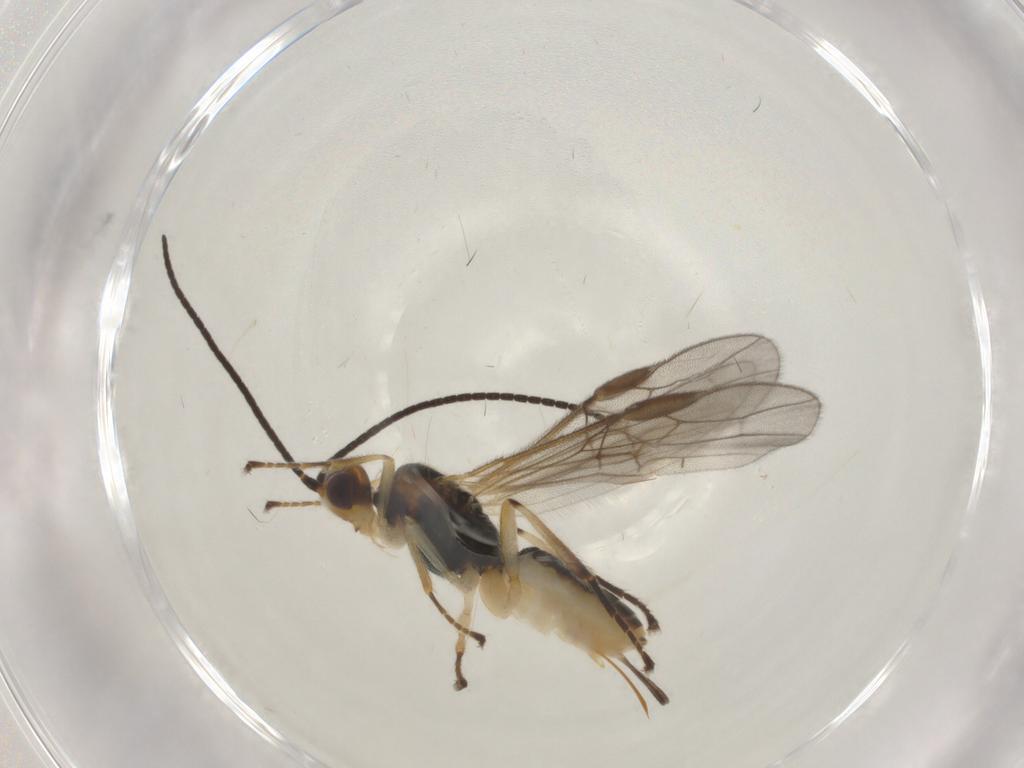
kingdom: Animalia
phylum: Arthropoda
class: Insecta
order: Hymenoptera
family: Braconidae
